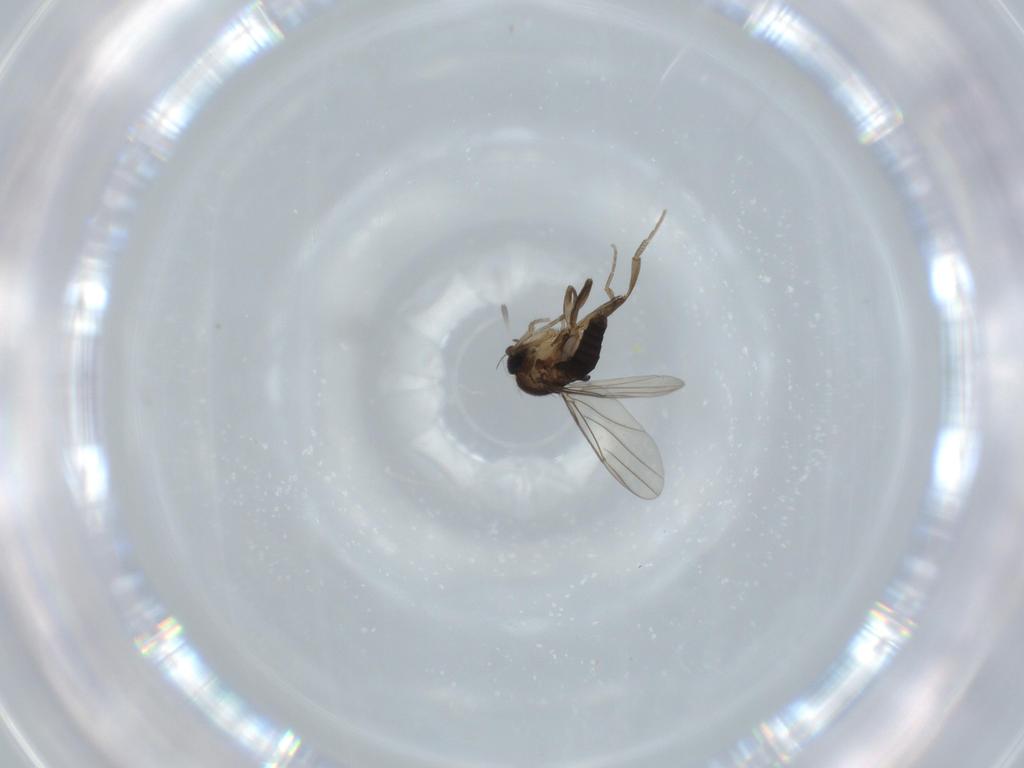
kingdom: Animalia
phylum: Arthropoda
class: Insecta
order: Diptera
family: Phoridae
